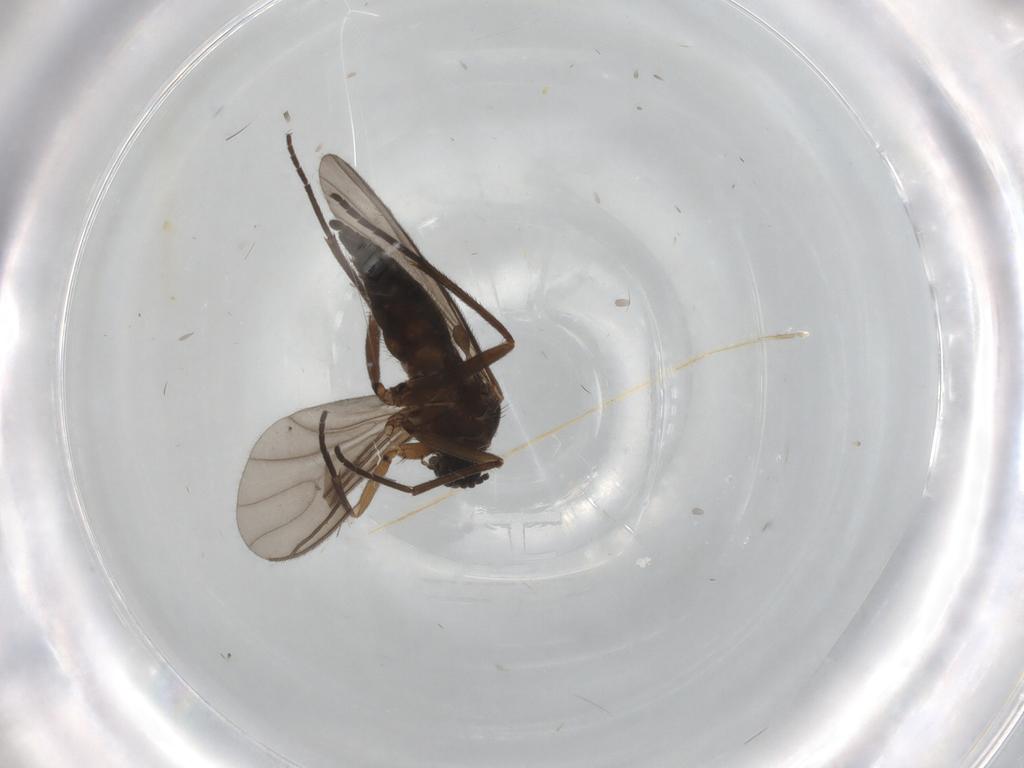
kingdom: Animalia
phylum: Arthropoda
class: Insecta
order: Diptera
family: Sciaridae
